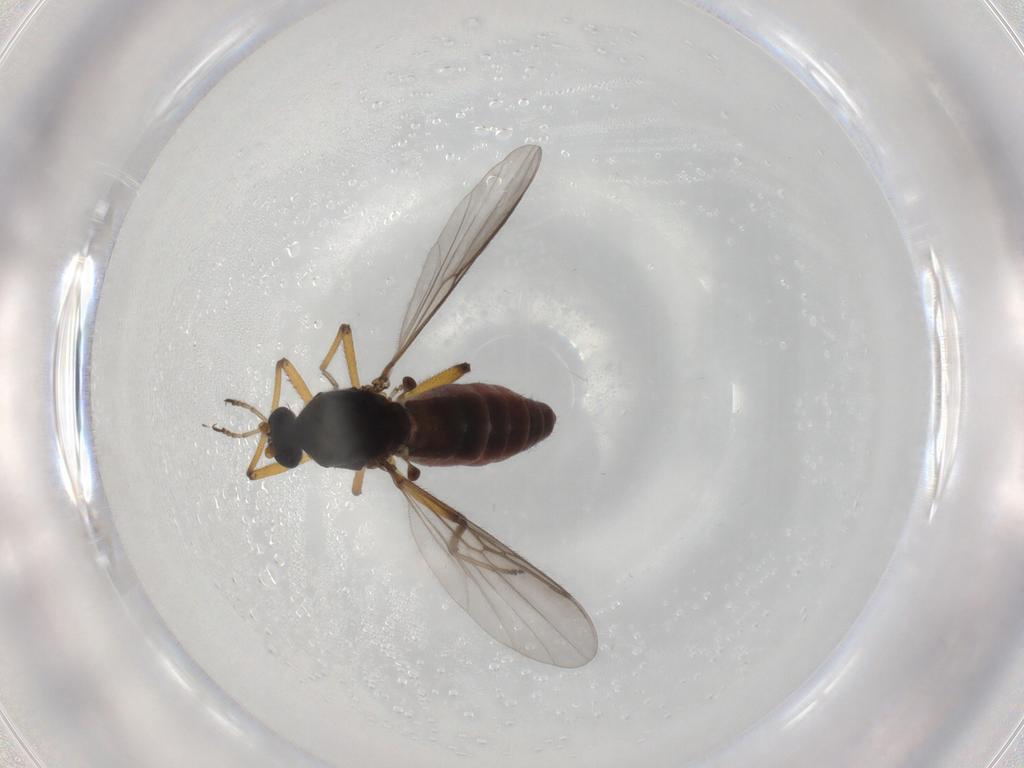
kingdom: Animalia
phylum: Arthropoda
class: Insecta
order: Diptera
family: Ceratopogonidae
